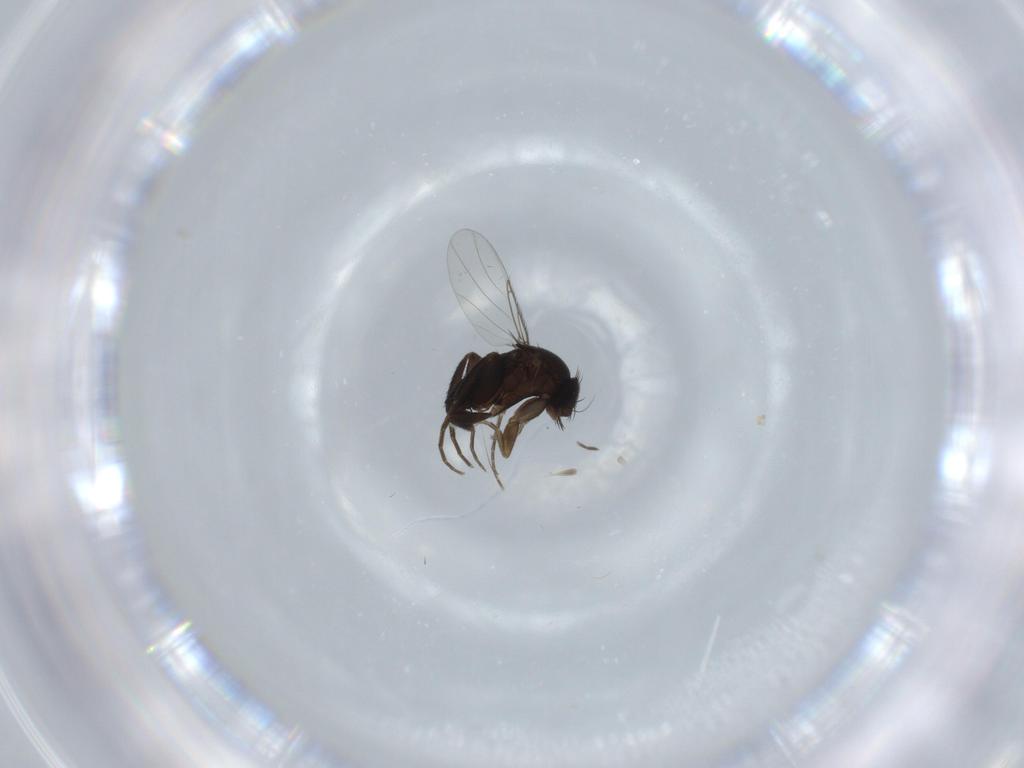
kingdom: Animalia
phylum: Arthropoda
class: Insecta
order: Diptera
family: Phoridae
